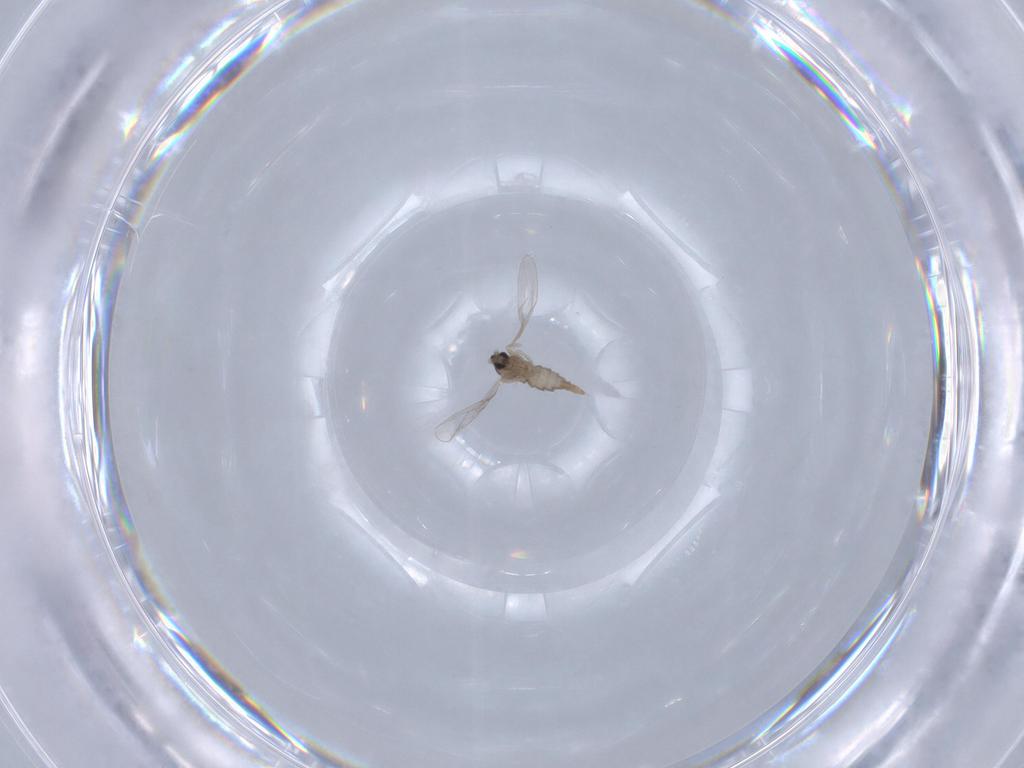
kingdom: Animalia
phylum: Arthropoda
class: Insecta
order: Diptera
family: Cecidomyiidae
